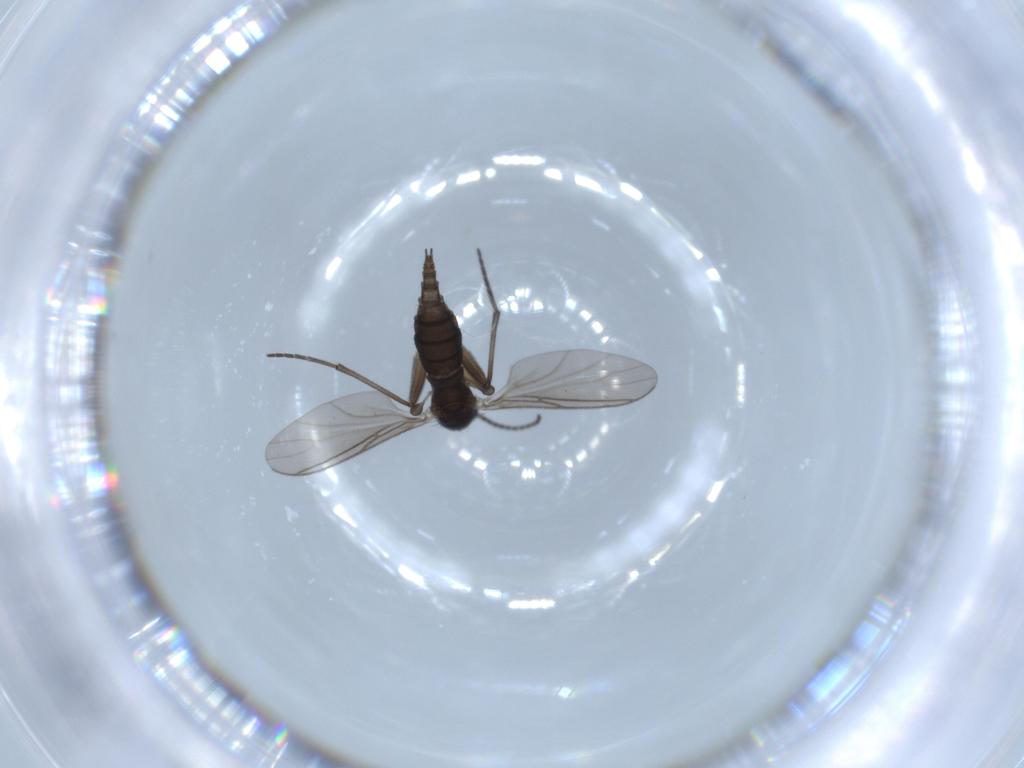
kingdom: Animalia
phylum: Arthropoda
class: Insecta
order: Diptera
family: Sciaridae
